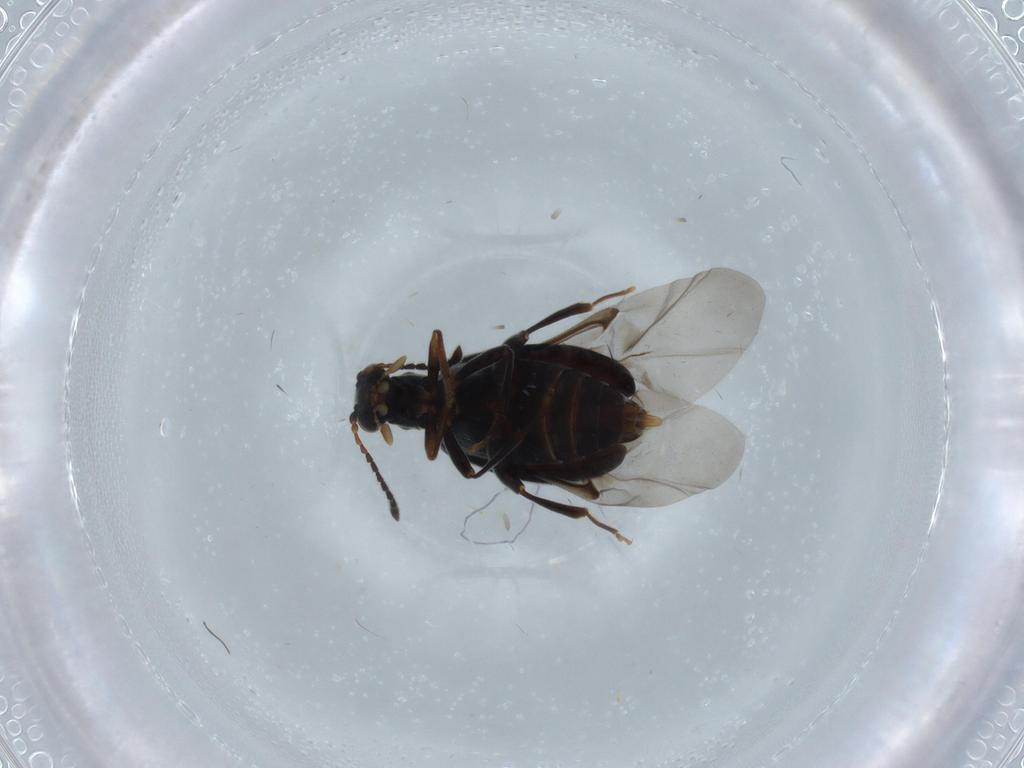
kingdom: Animalia
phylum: Arthropoda
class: Insecta
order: Coleoptera
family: Aderidae
